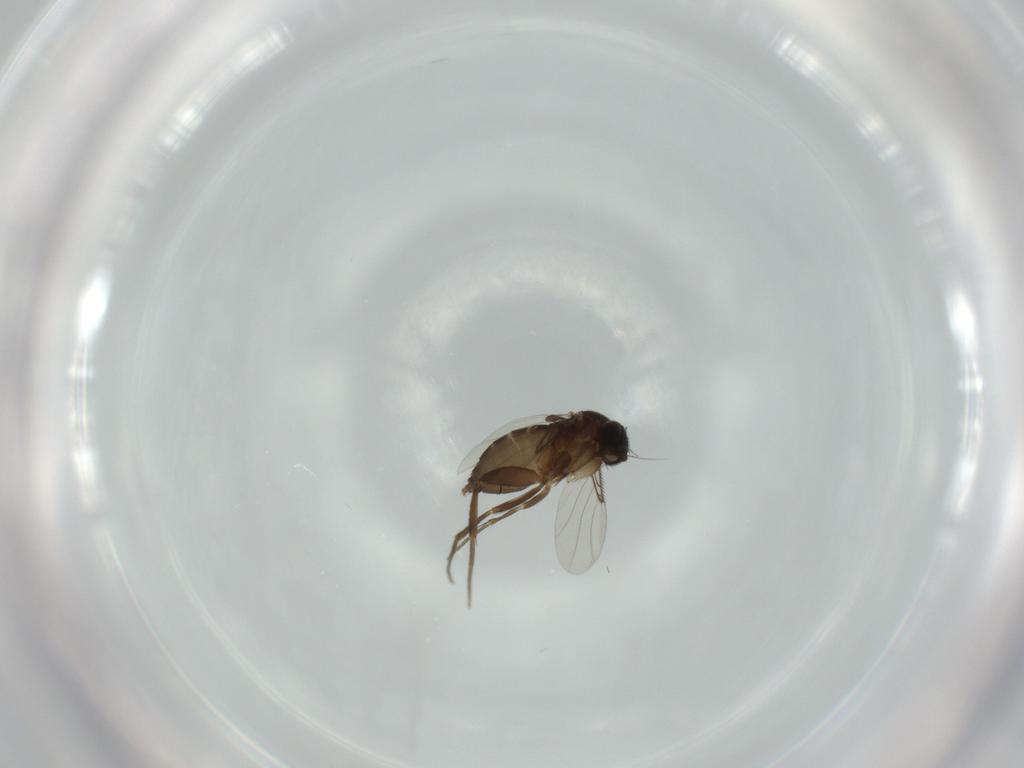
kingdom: Animalia
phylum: Arthropoda
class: Insecta
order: Diptera
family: Phoridae
